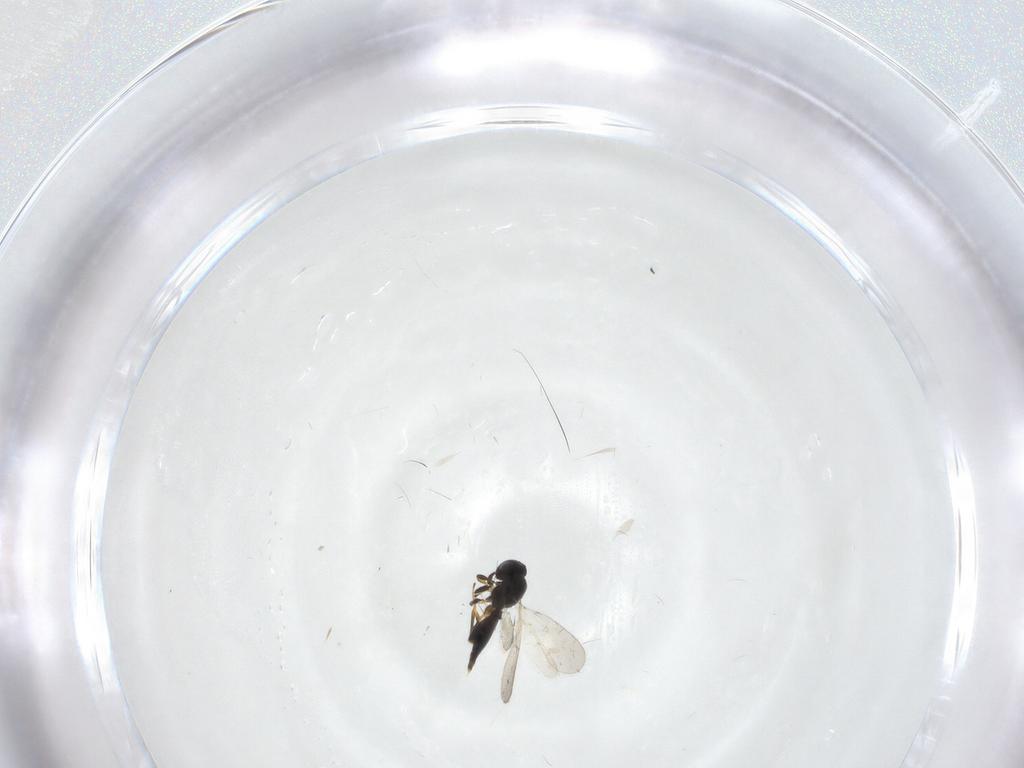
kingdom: Animalia
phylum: Arthropoda
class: Insecta
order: Hymenoptera
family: Platygastridae
